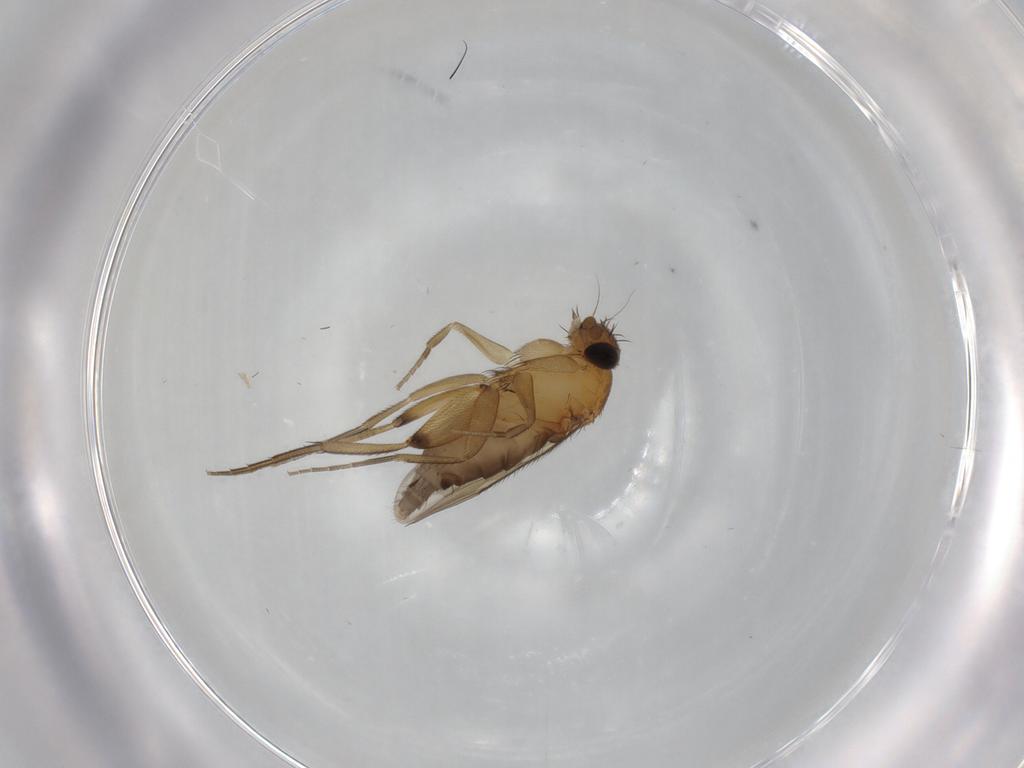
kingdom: Animalia
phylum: Arthropoda
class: Insecta
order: Diptera
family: Phoridae
